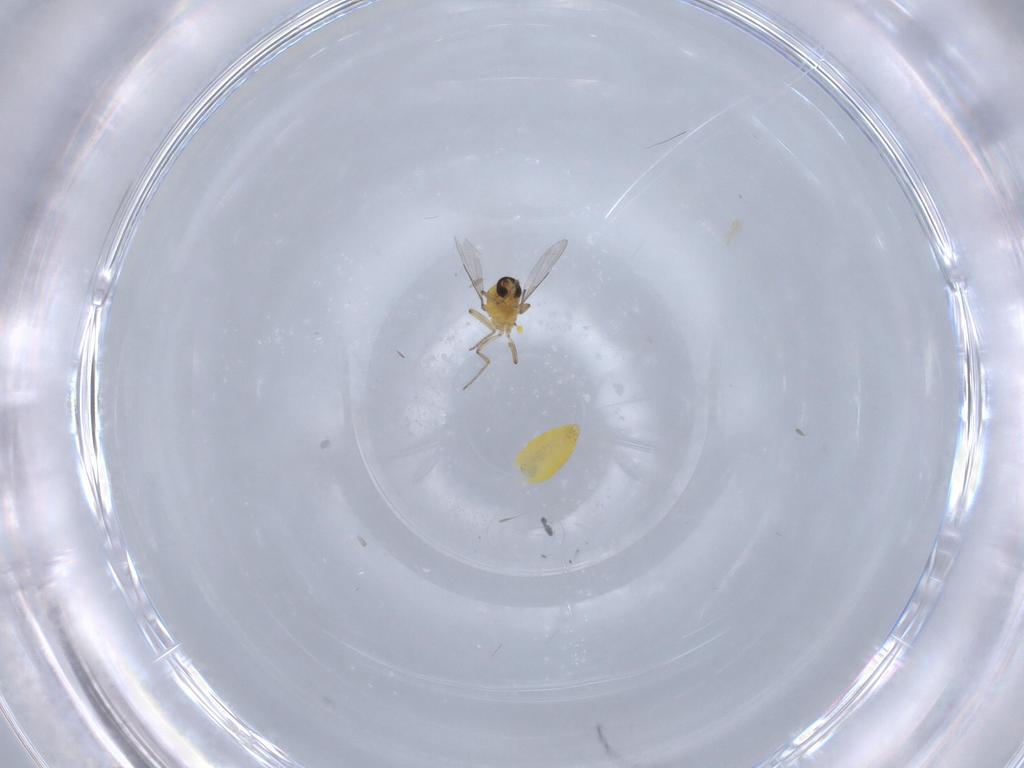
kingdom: Animalia
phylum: Arthropoda
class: Insecta
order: Diptera
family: Ceratopogonidae
